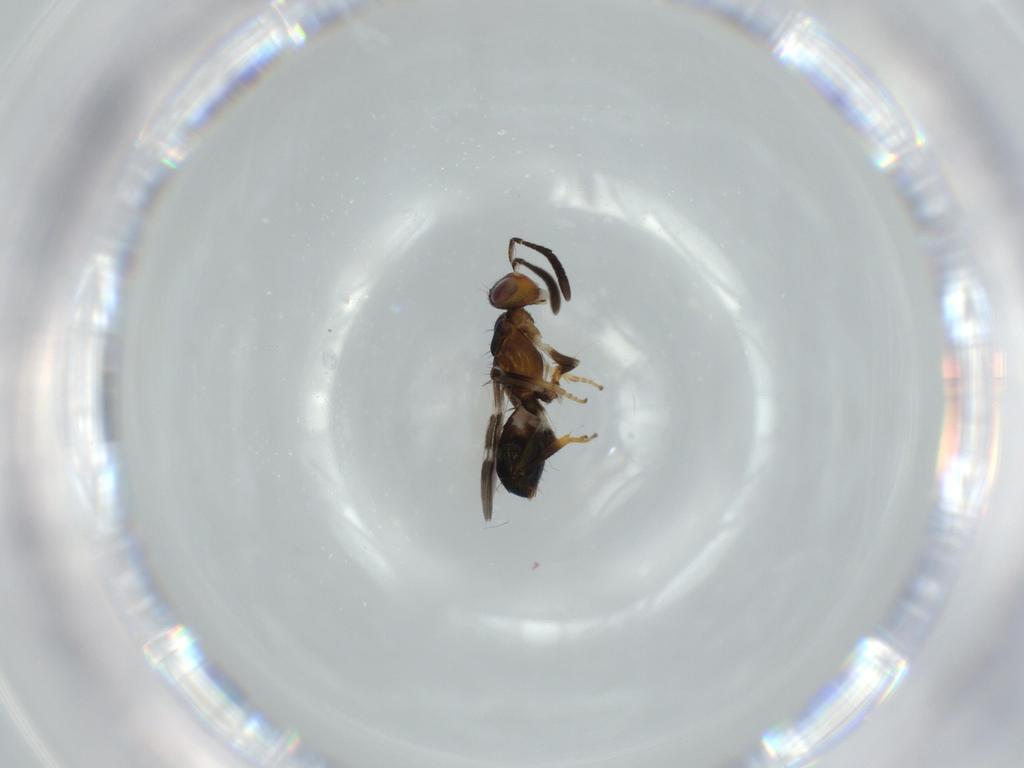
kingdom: Animalia
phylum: Arthropoda
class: Insecta
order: Hymenoptera
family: Eupelmidae
